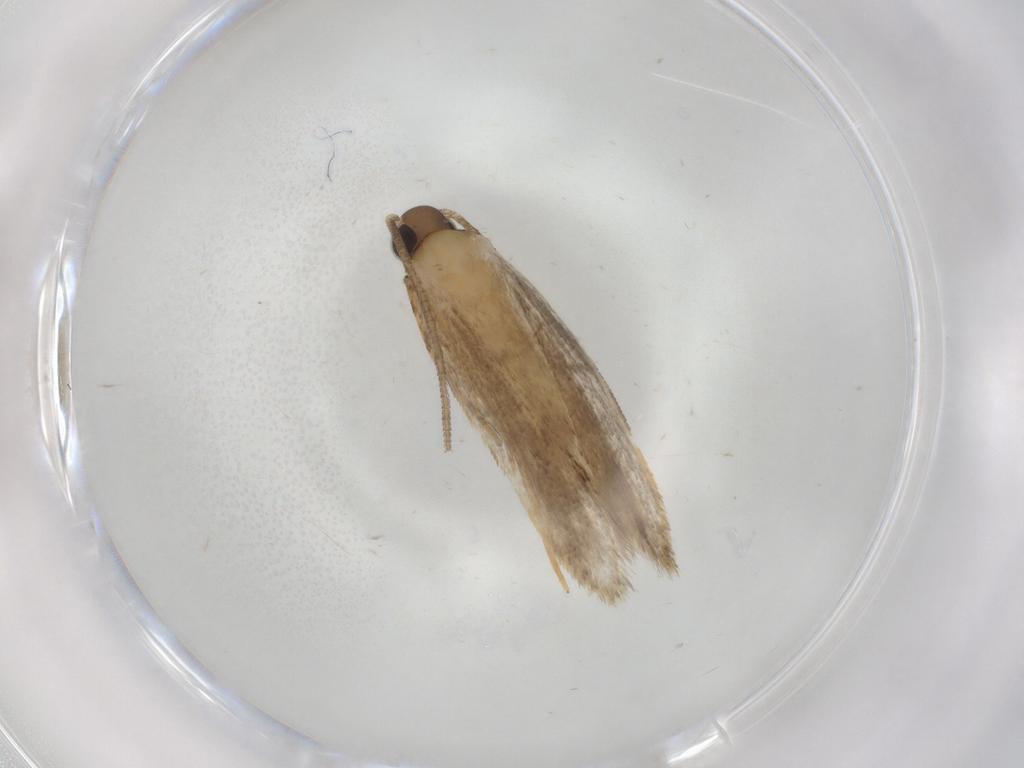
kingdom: Animalia
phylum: Arthropoda
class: Insecta
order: Lepidoptera
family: Autostichidae
